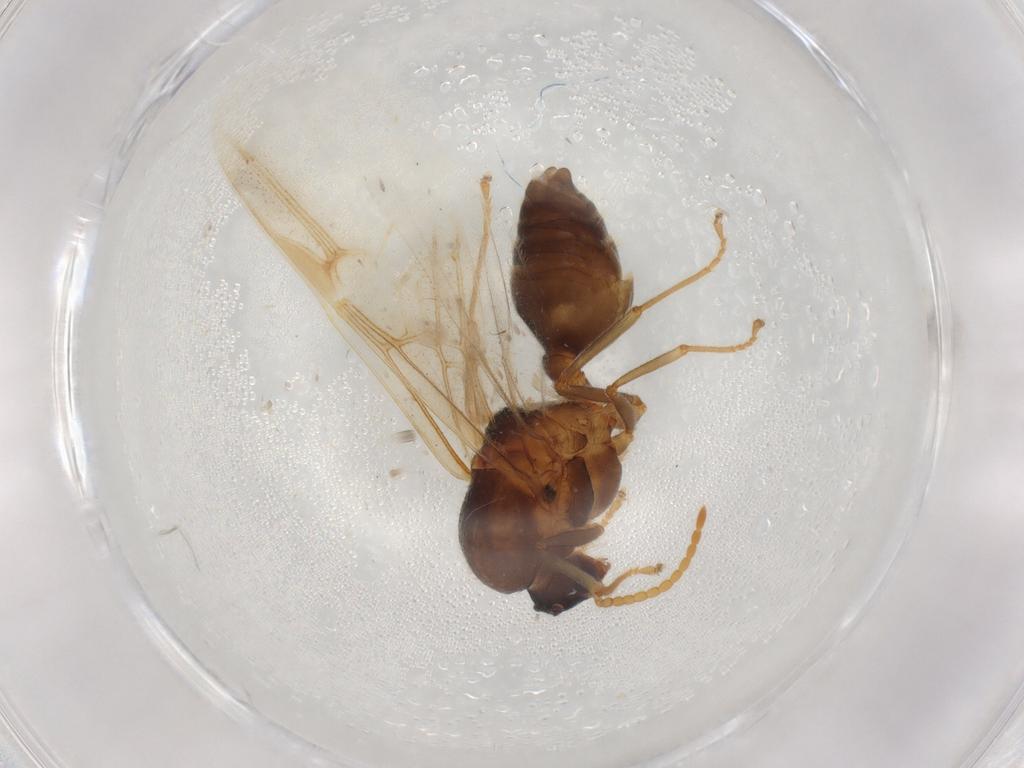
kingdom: Animalia
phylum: Arthropoda
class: Insecta
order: Hymenoptera
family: Formicidae
